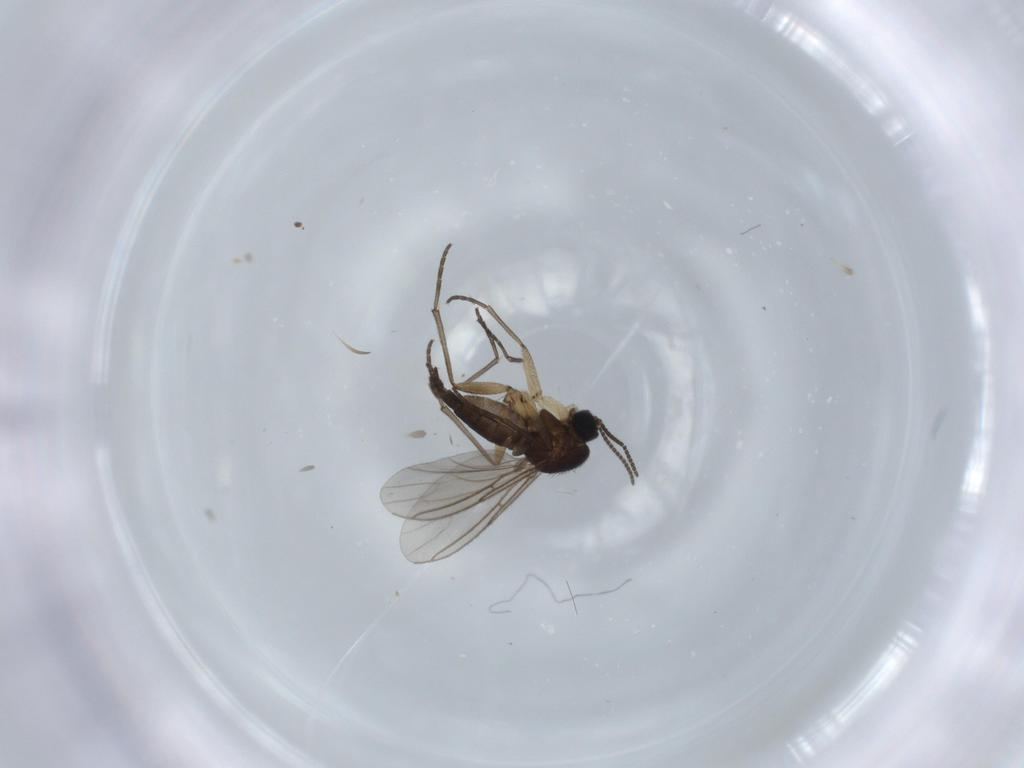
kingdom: Animalia
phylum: Arthropoda
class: Insecta
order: Diptera
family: Sciaridae
